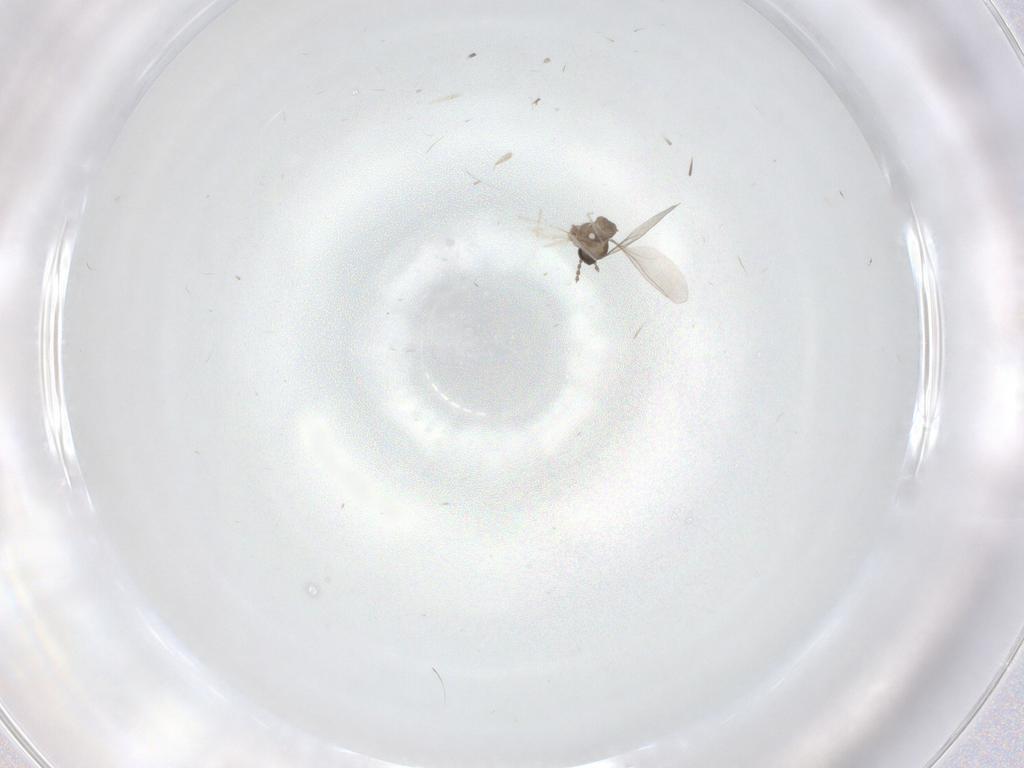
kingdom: Animalia
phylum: Arthropoda
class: Insecta
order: Diptera
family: Cecidomyiidae
